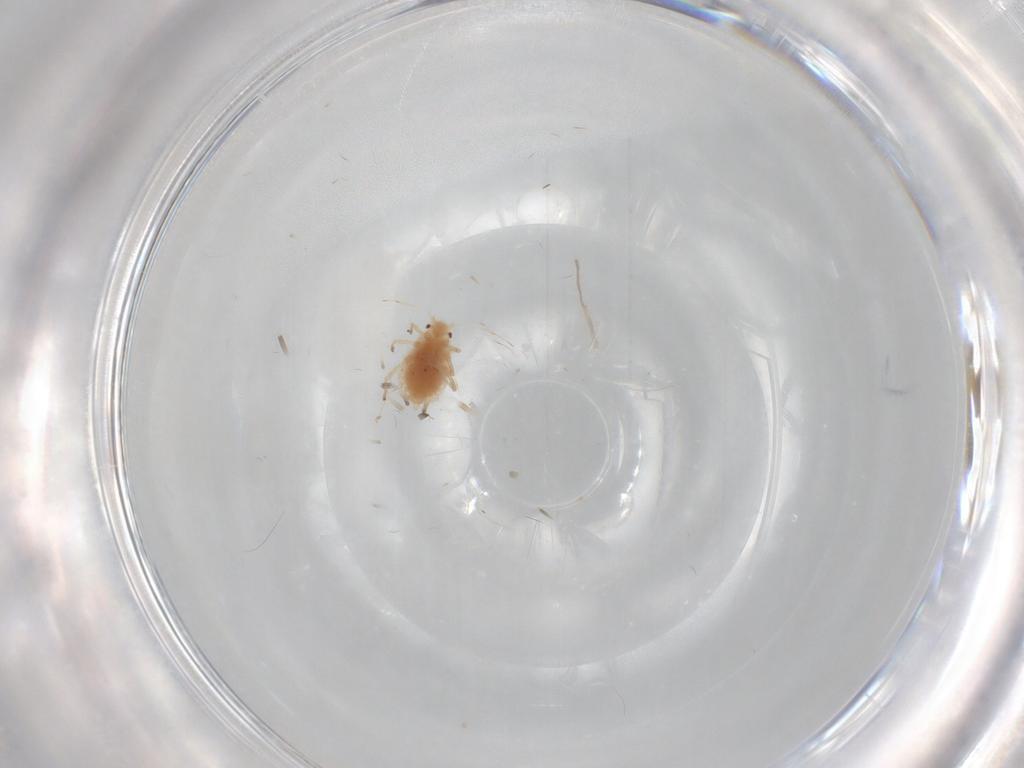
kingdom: Animalia
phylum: Arthropoda
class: Insecta
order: Hemiptera
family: Aphididae
